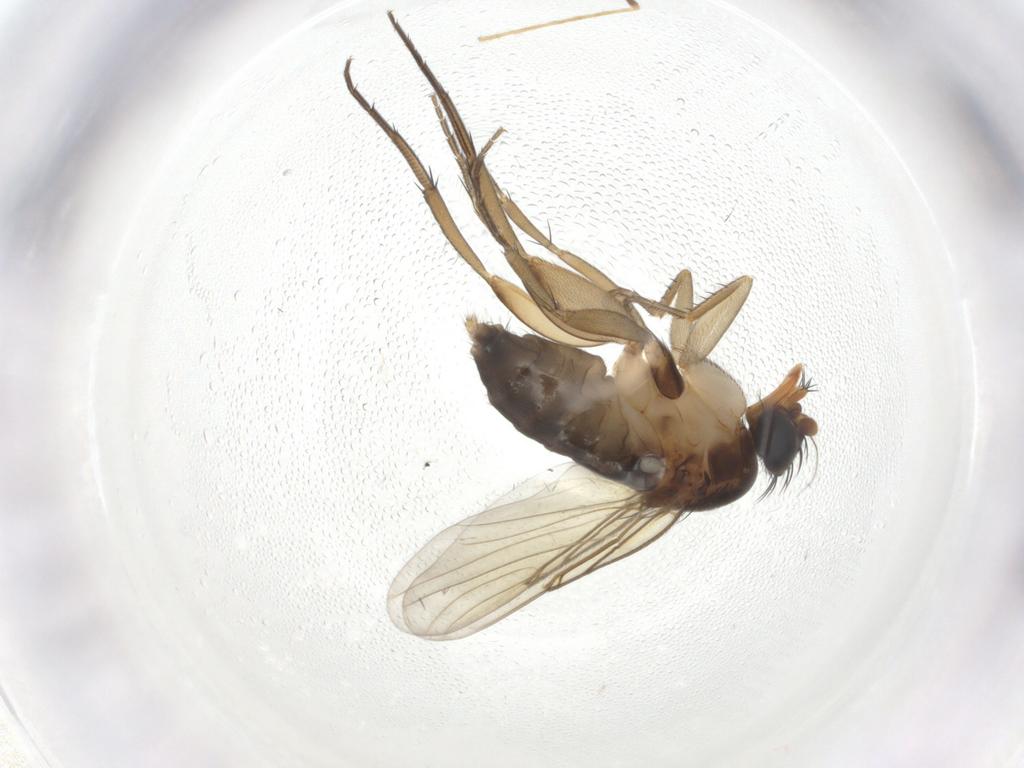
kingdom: Animalia
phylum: Arthropoda
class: Insecta
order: Diptera
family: Phoridae
